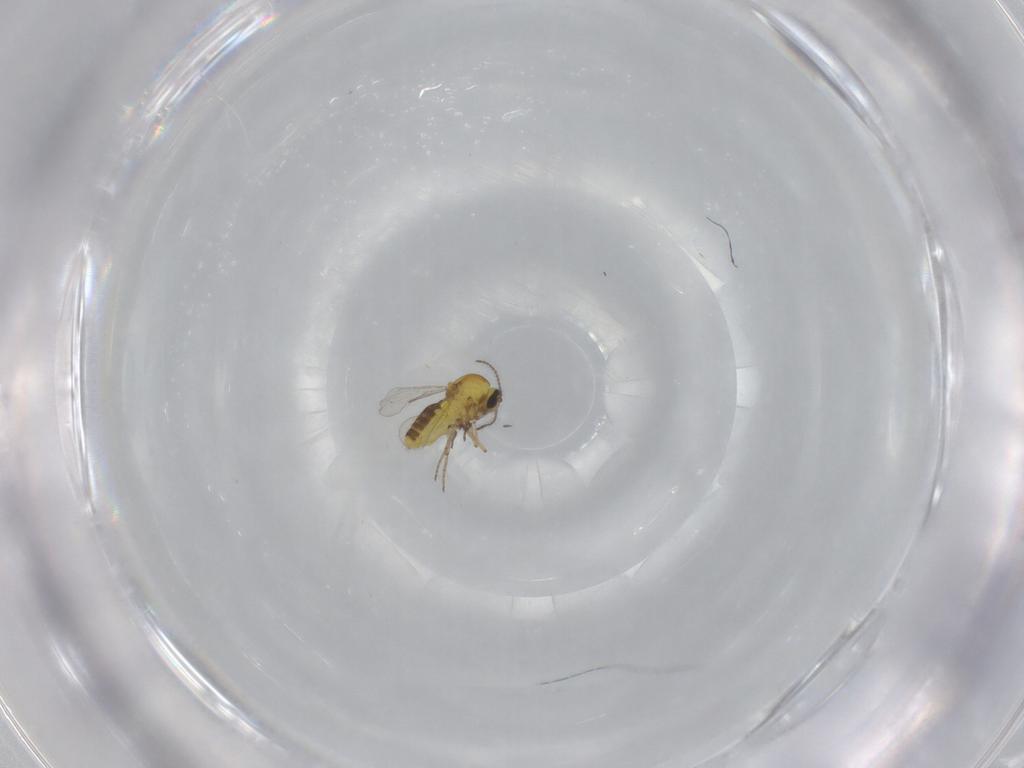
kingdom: Animalia
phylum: Arthropoda
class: Insecta
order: Diptera
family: Ceratopogonidae
